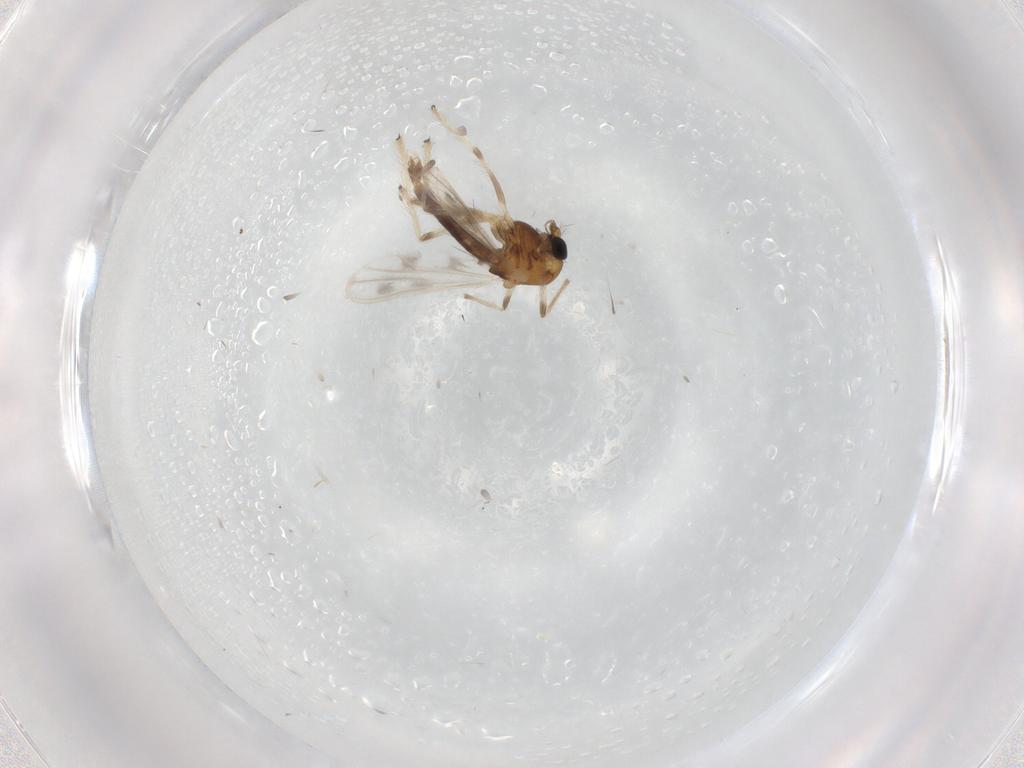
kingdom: Animalia
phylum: Arthropoda
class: Insecta
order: Diptera
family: Chironomidae
